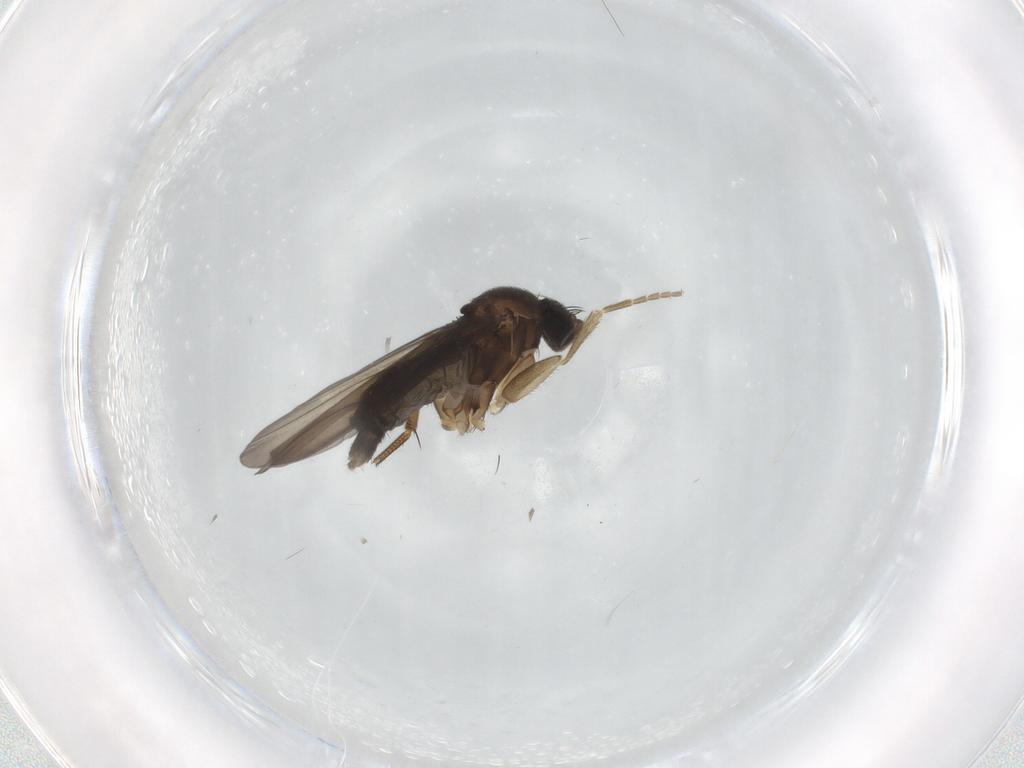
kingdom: Animalia
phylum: Arthropoda
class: Insecta
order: Diptera
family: Phoridae
